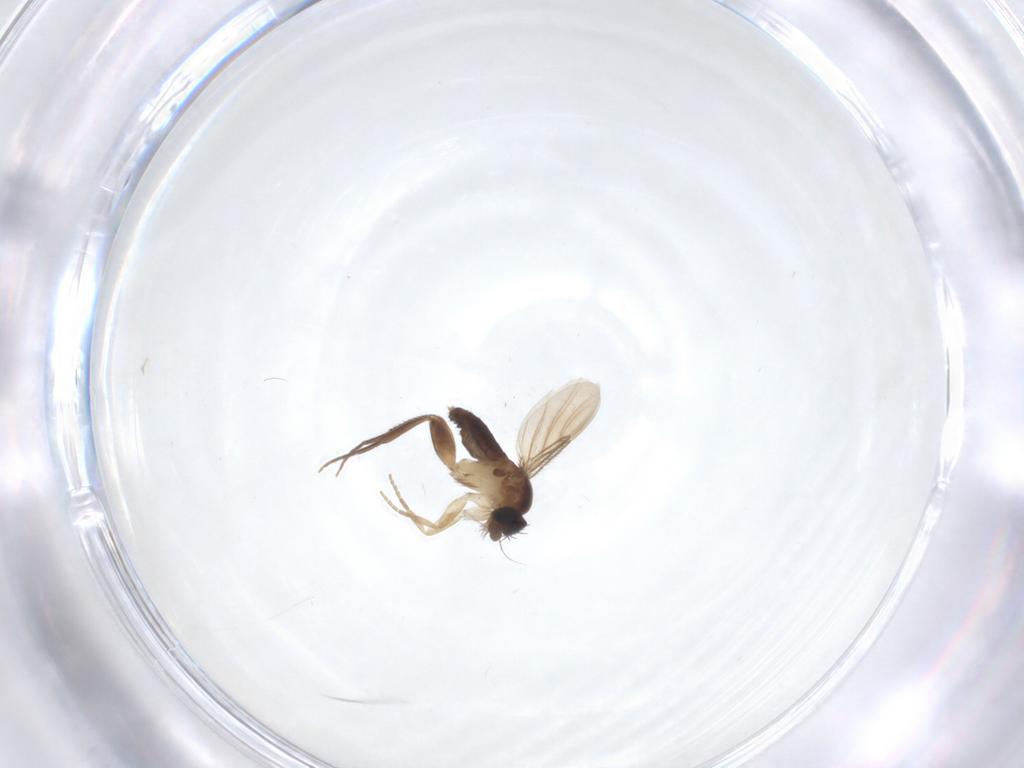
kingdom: Animalia
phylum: Arthropoda
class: Insecta
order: Diptera
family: Phoridae
